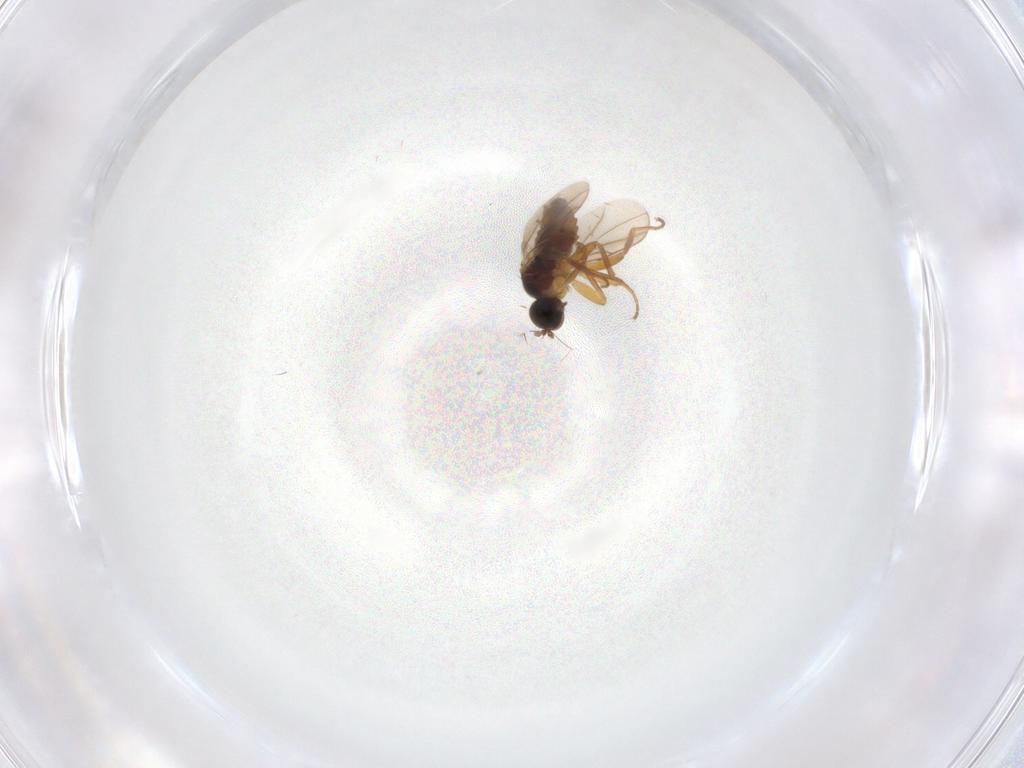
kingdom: Animalia
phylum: Arthropoda
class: Insecta
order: Diptera
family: Hybotidae
